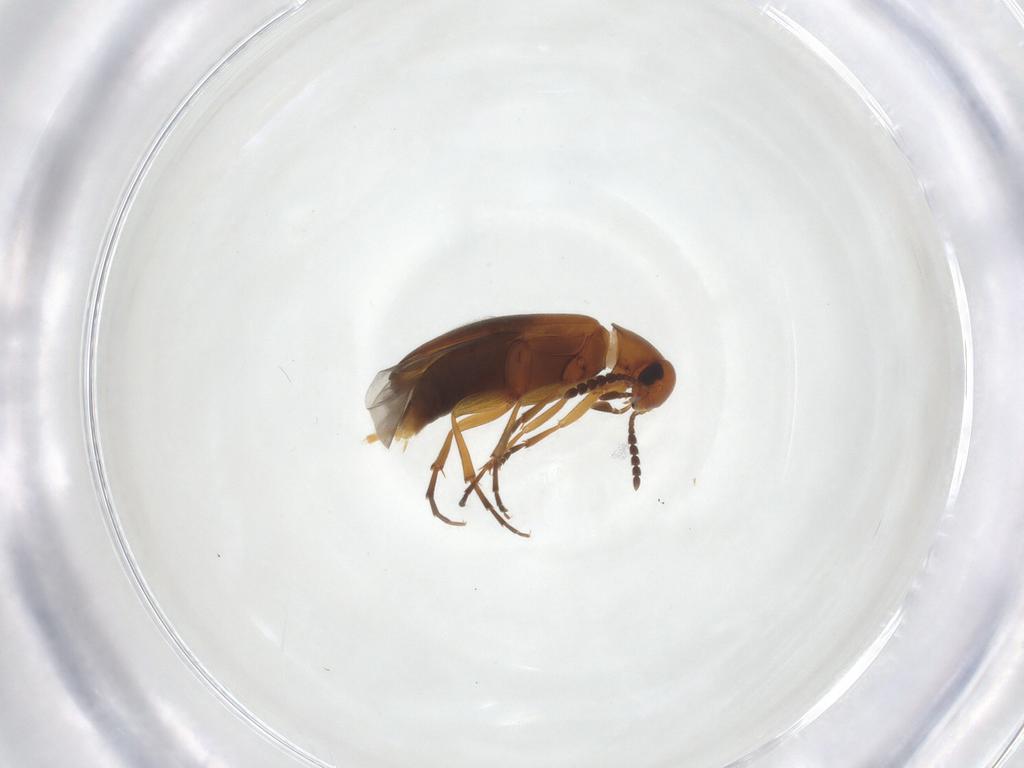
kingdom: Animalia
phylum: Arthropoda
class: Insecta
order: Coleoptera
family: Scraptiidae
